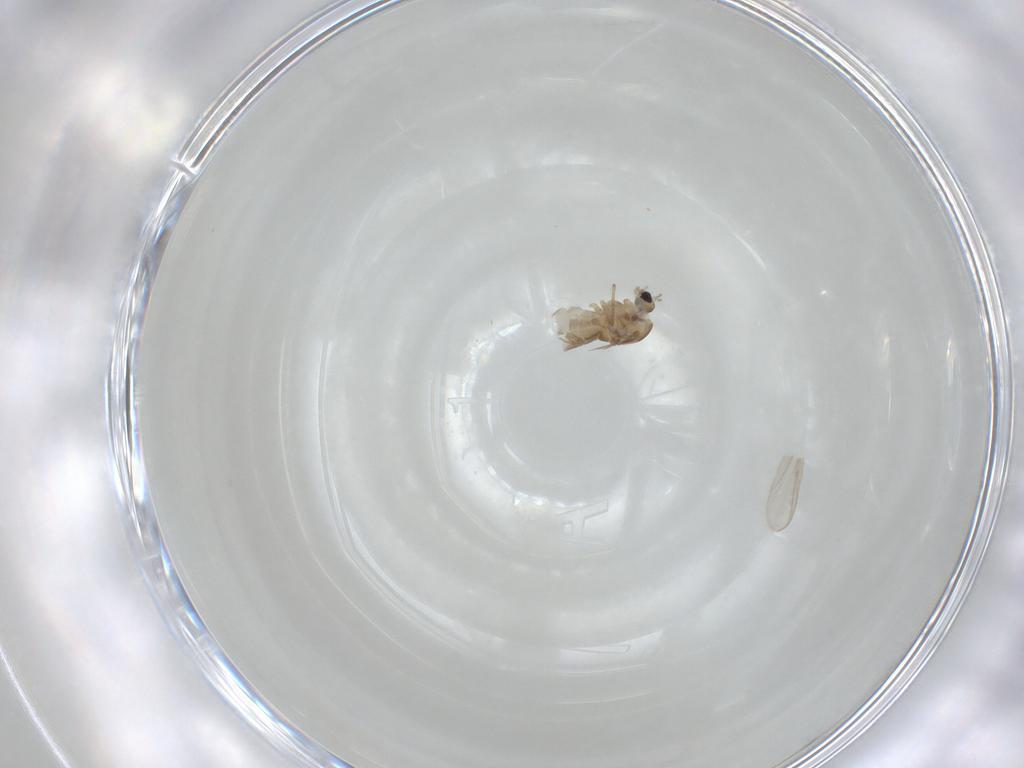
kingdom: Animalia
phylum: Arthropoda
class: Insecta
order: Diptera
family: Chironomidae
